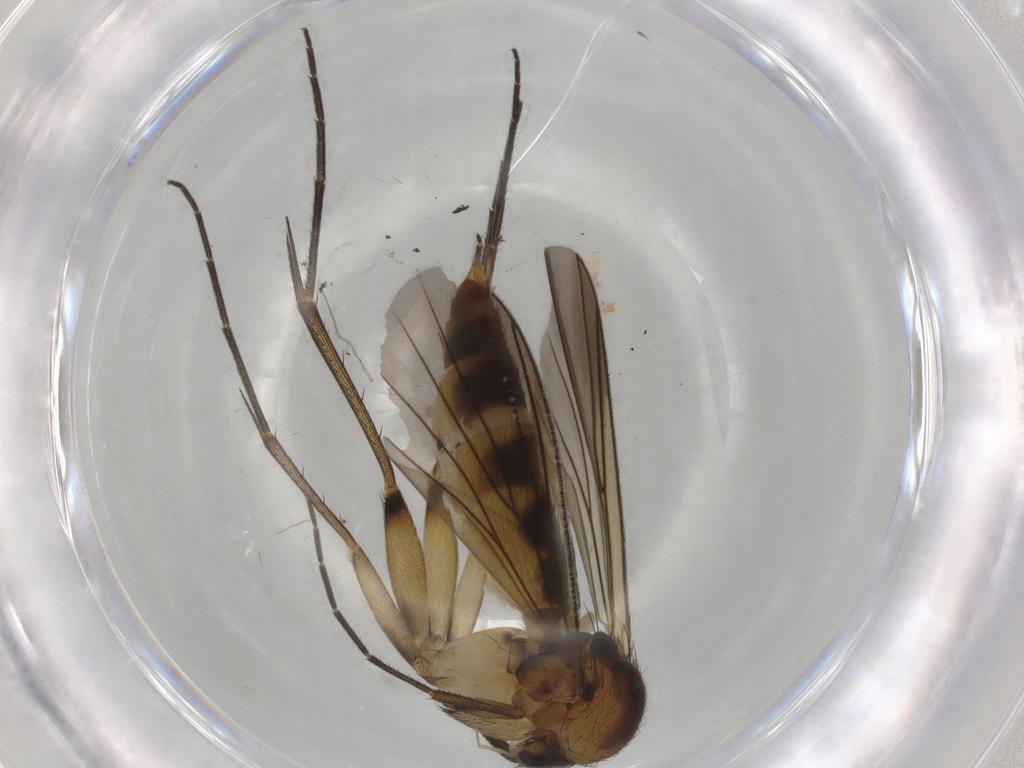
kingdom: Animalia
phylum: Arthropoda
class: Insecta
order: Diptera
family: Mycetophilidae
